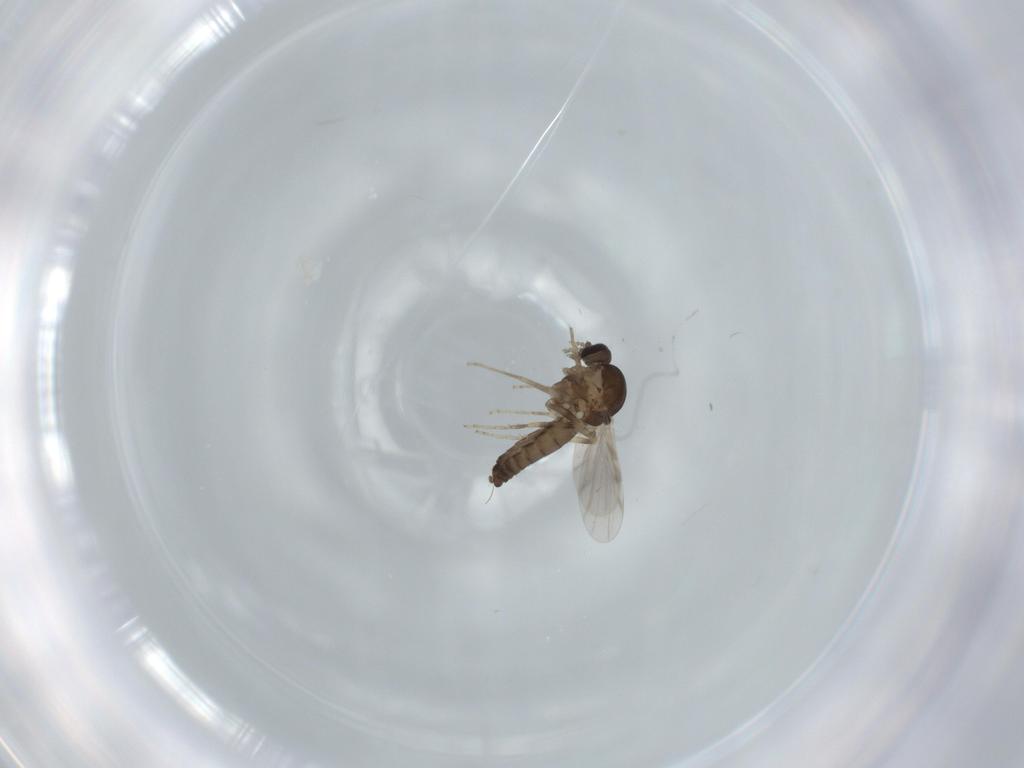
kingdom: Animalia
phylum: Arthropoda
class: Insecta
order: Diptera
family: Ceratopogonidae
